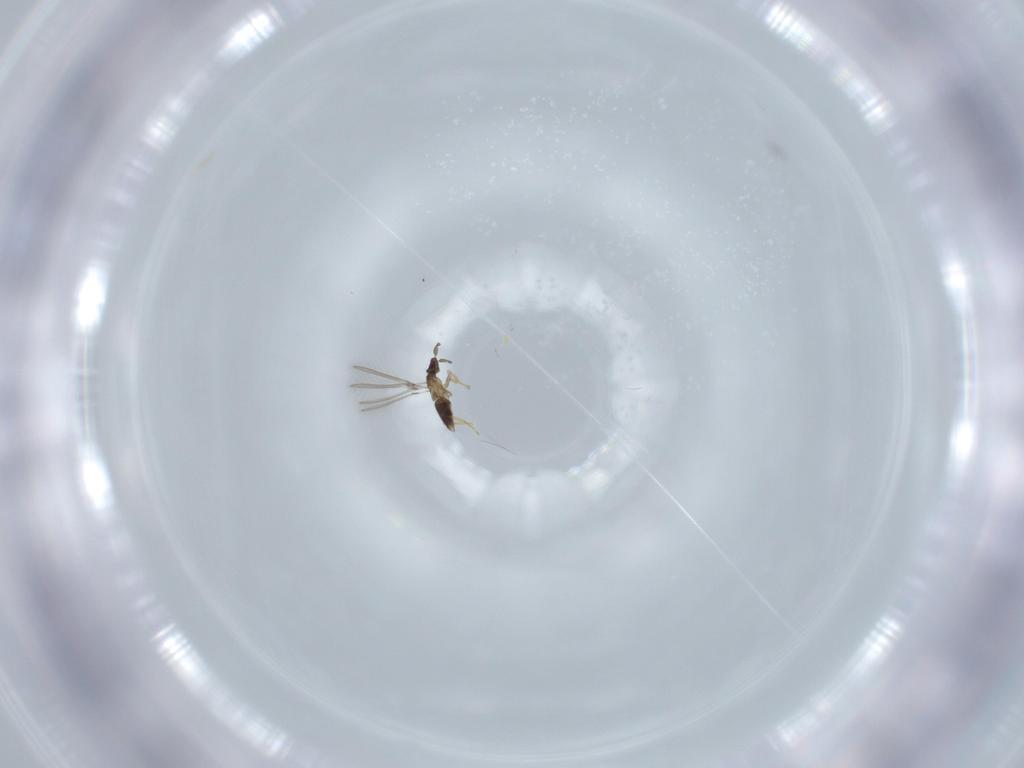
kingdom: Animalia
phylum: Arthropoda
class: Insecta
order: Hymenoptera
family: Mymaridae
